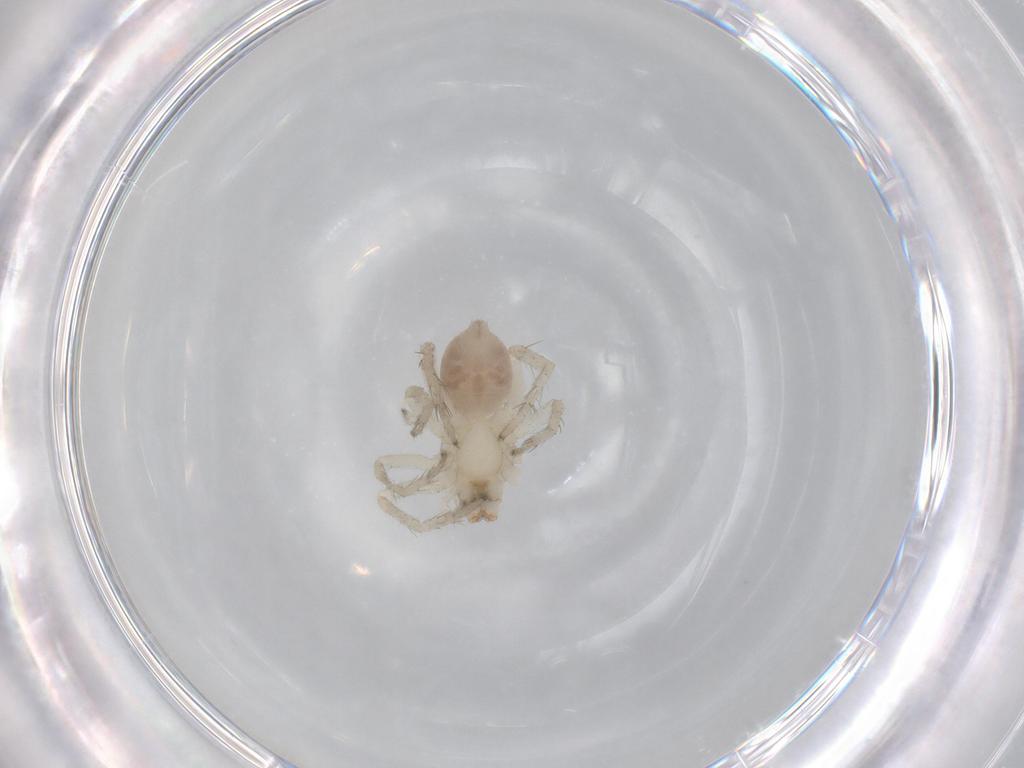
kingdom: Animalia
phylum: Arthropoda
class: Arachnida
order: Araneae
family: Anyphaenidae
